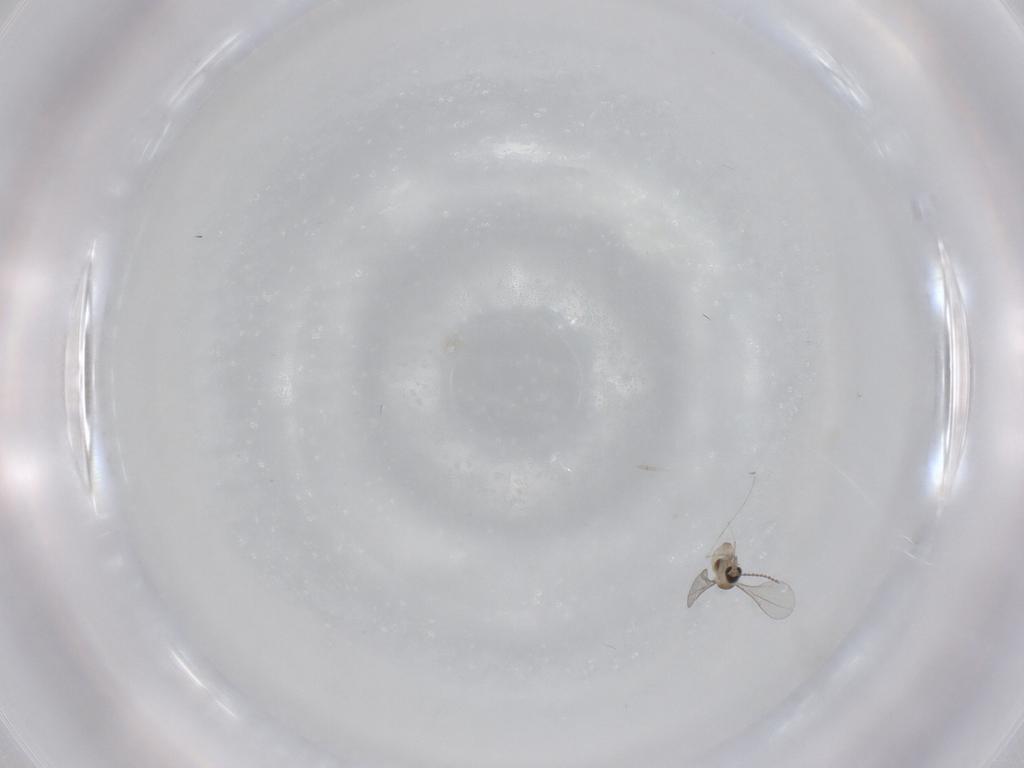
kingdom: Animalia
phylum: Arthropoda
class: Insecta
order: Diptera
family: Cecidomyiidae
